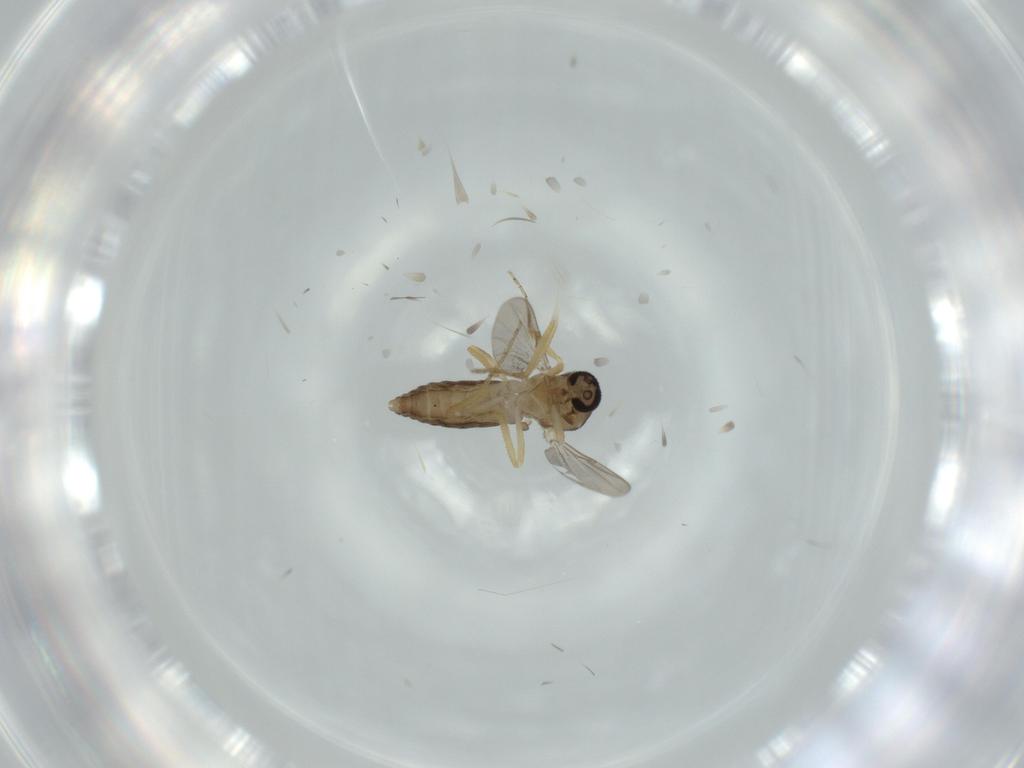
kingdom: Animalia
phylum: Arthropoda
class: Insecta
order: Diptera
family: Ceratopogonidae
